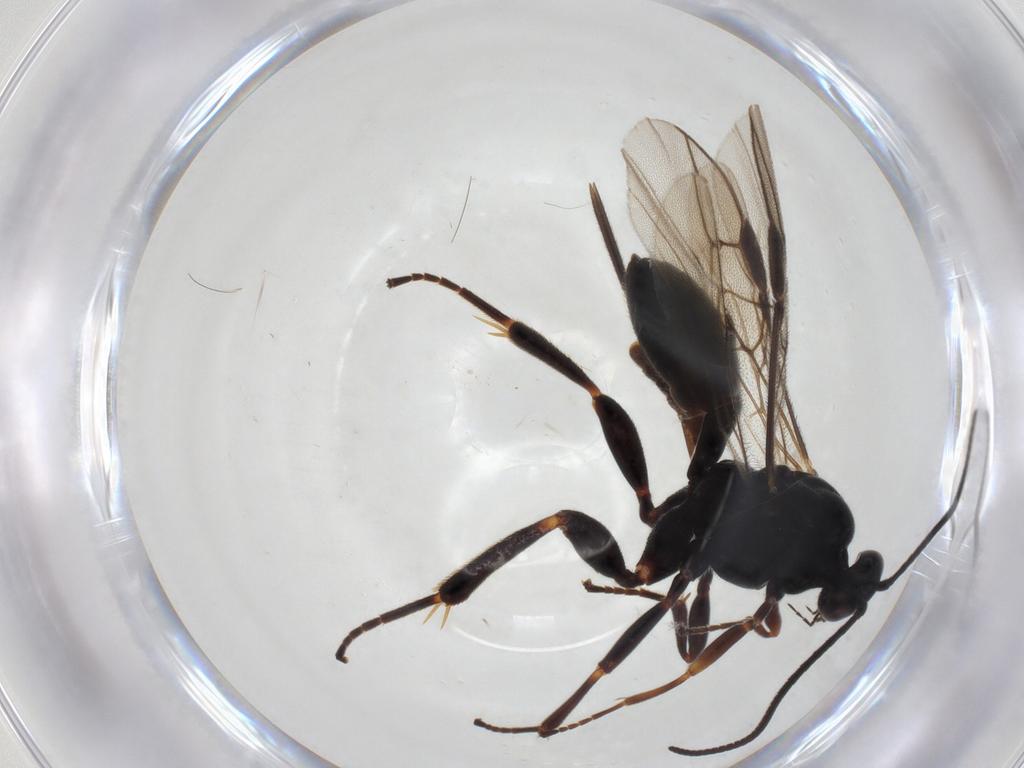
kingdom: Animalia
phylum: Arthropoda
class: Insecta
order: Hymenoptera
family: Braconidae
